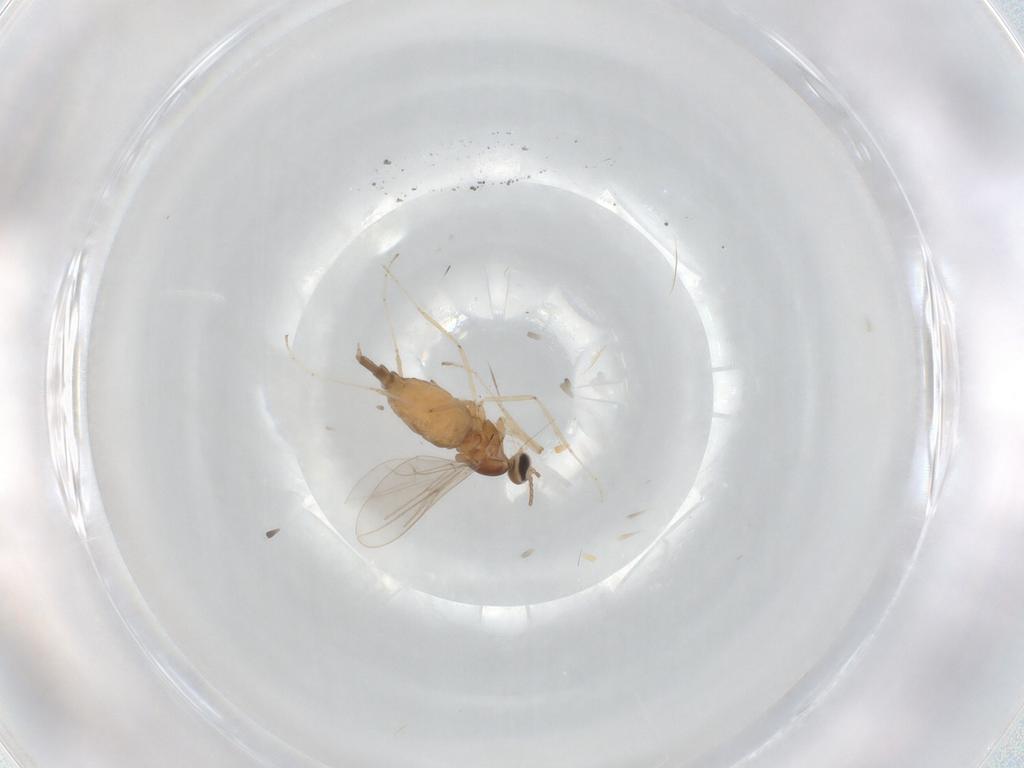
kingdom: Animalia
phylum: Arthropoda
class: Insecta
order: Diptera
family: Cecidomyiidae
